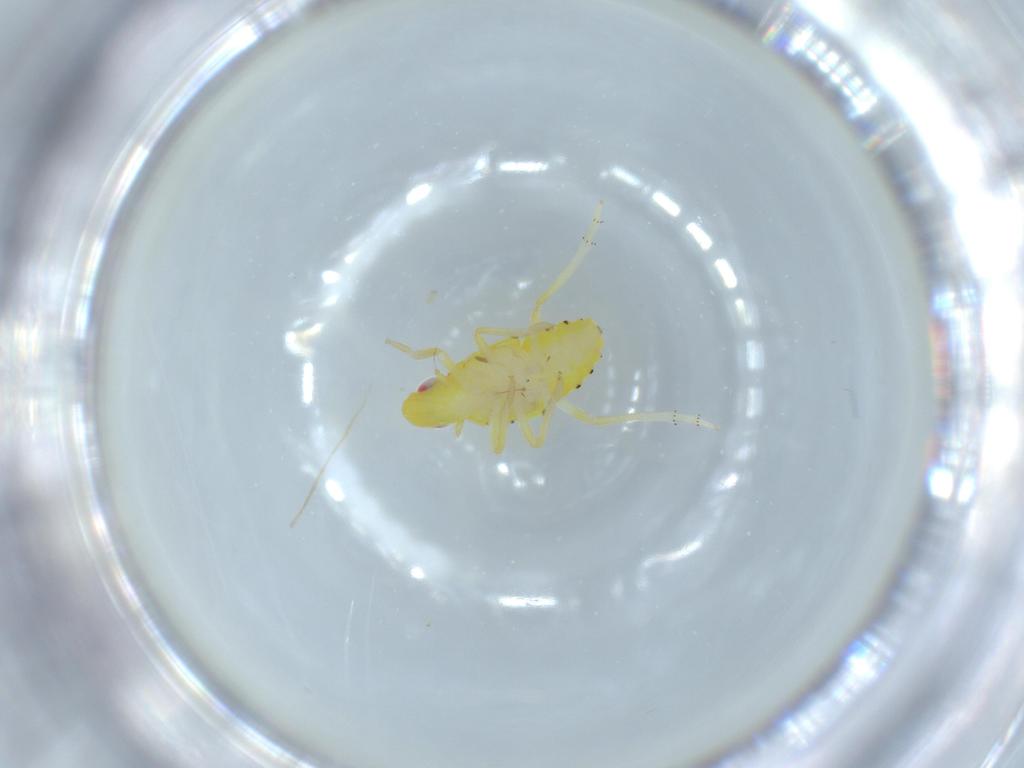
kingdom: Animalia
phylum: Arthropoda
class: Insecta
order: Hemiptera
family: Tropiduchidae
